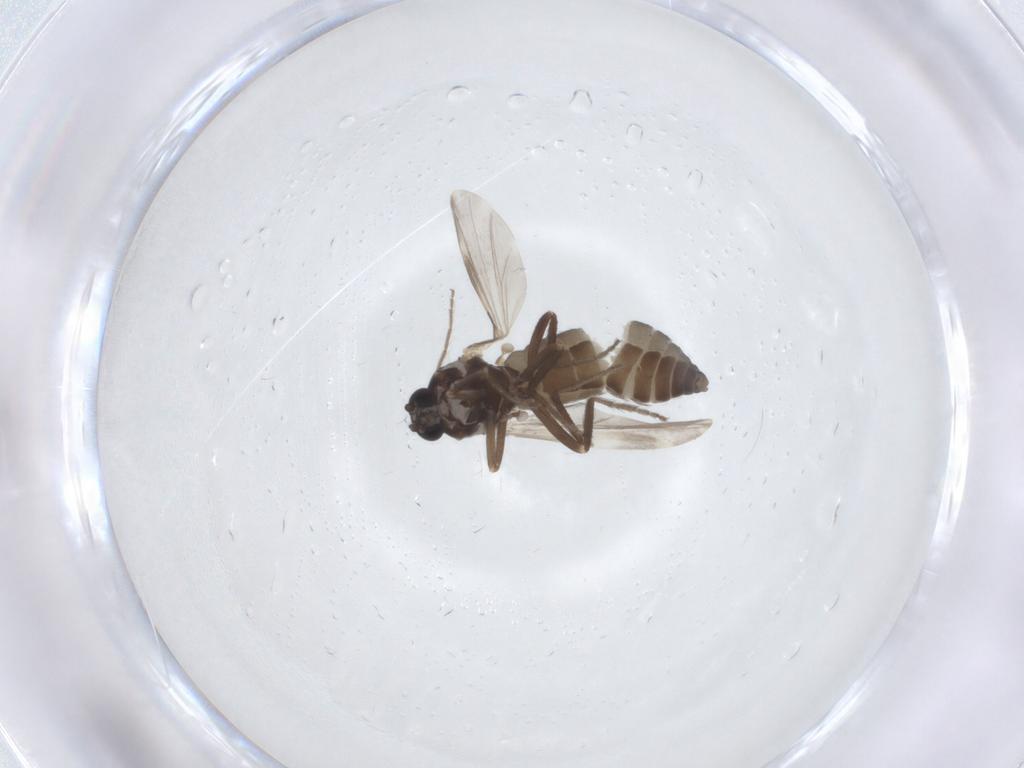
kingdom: Animalia
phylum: Arthropoda
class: Insecta
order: Diptera
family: Ceratopogonidae
